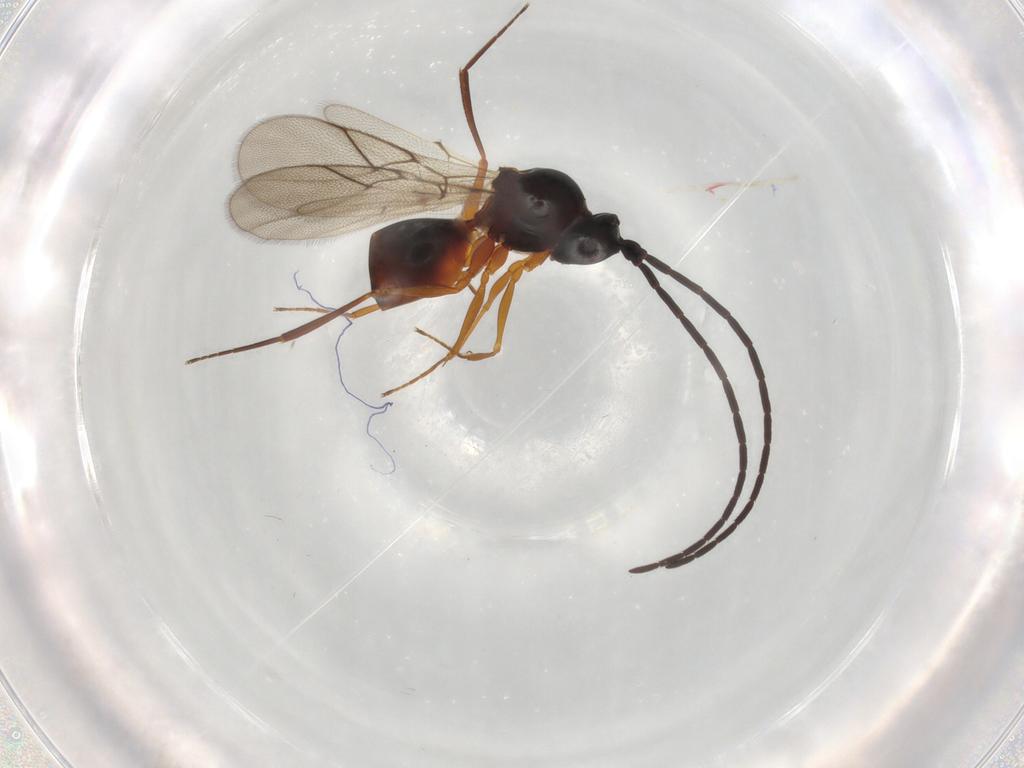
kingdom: Animalia
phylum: Arthropoda
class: Insecta
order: Hymenoptera
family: Figitidae
